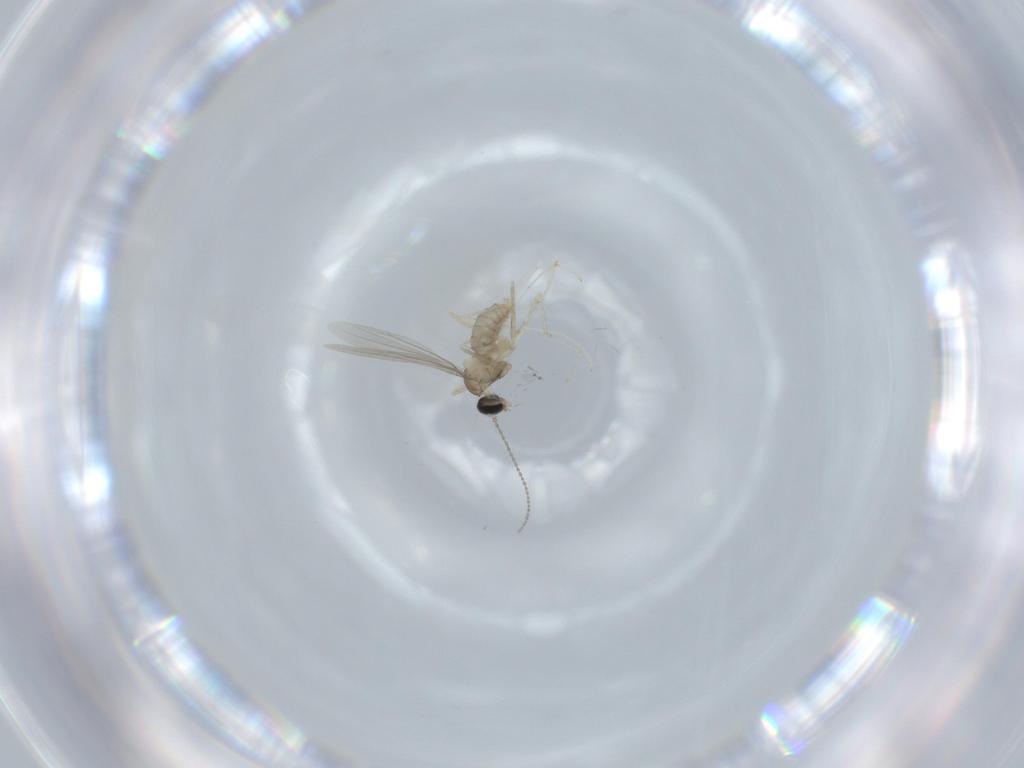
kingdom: Animalia
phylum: Arthropoda
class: Insecta
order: Diptera
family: Cecidomyiidae
